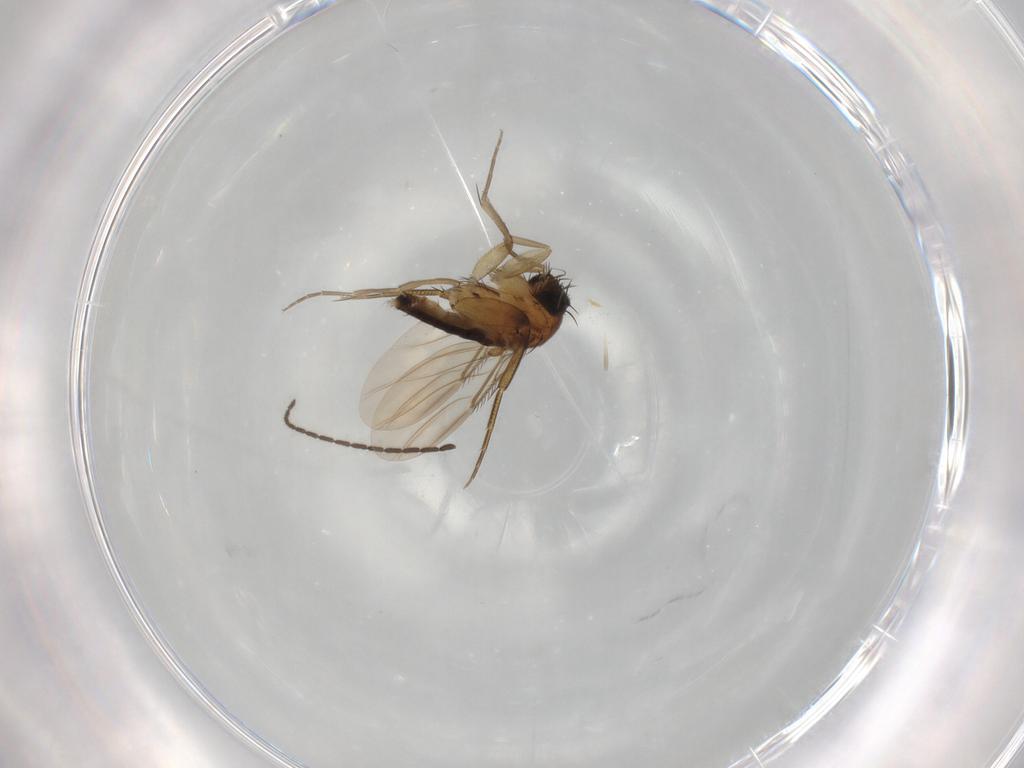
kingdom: Animalia
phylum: Arthropoda
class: Insecta
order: Diptera
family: Phoridae
